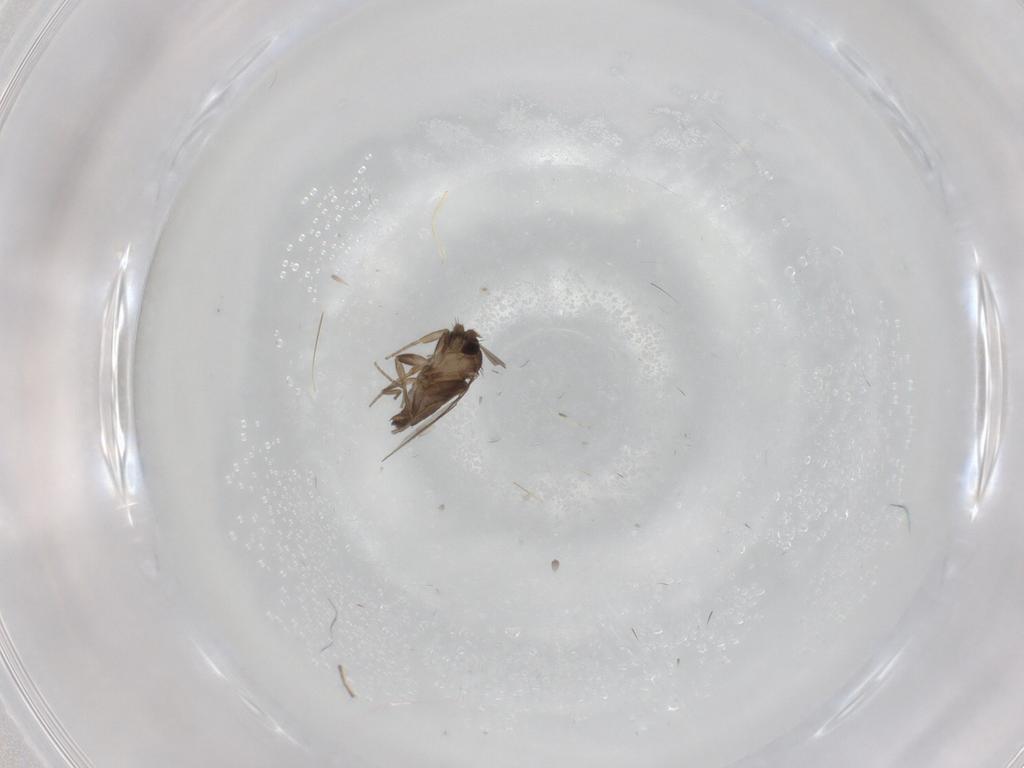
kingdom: Animalia
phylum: Arthropoda
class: Insecta
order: Diptera
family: Phoridae
